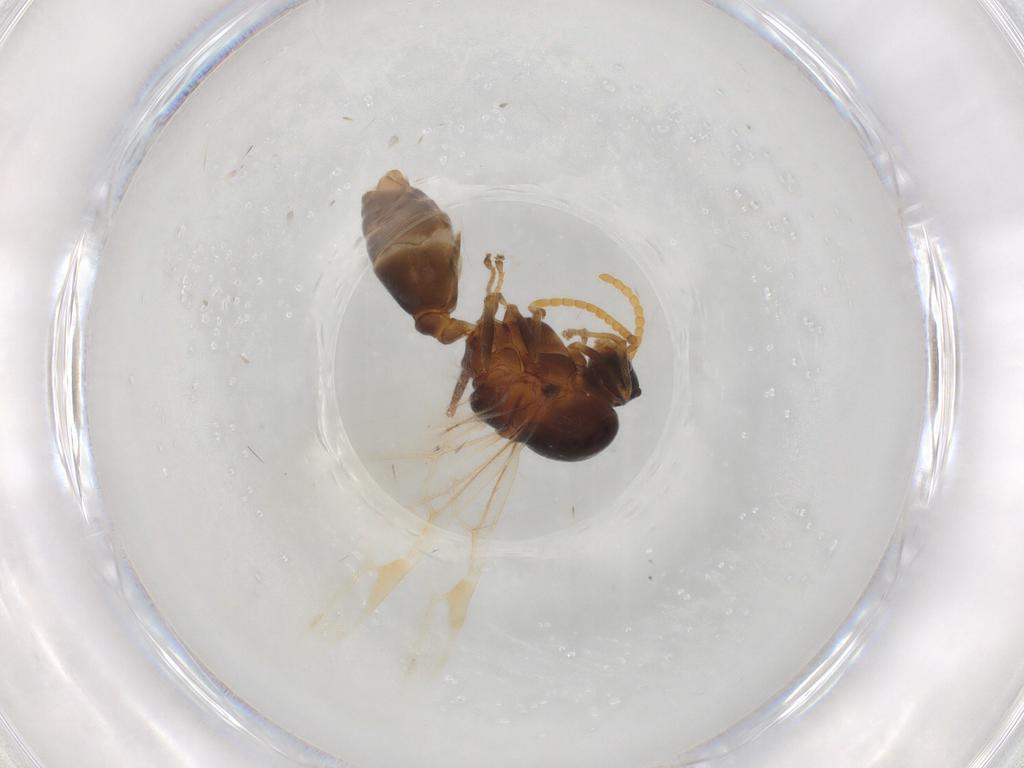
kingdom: Animalia
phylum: Arthropoda
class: Insecta
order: Hymenoptera
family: Formicidae
